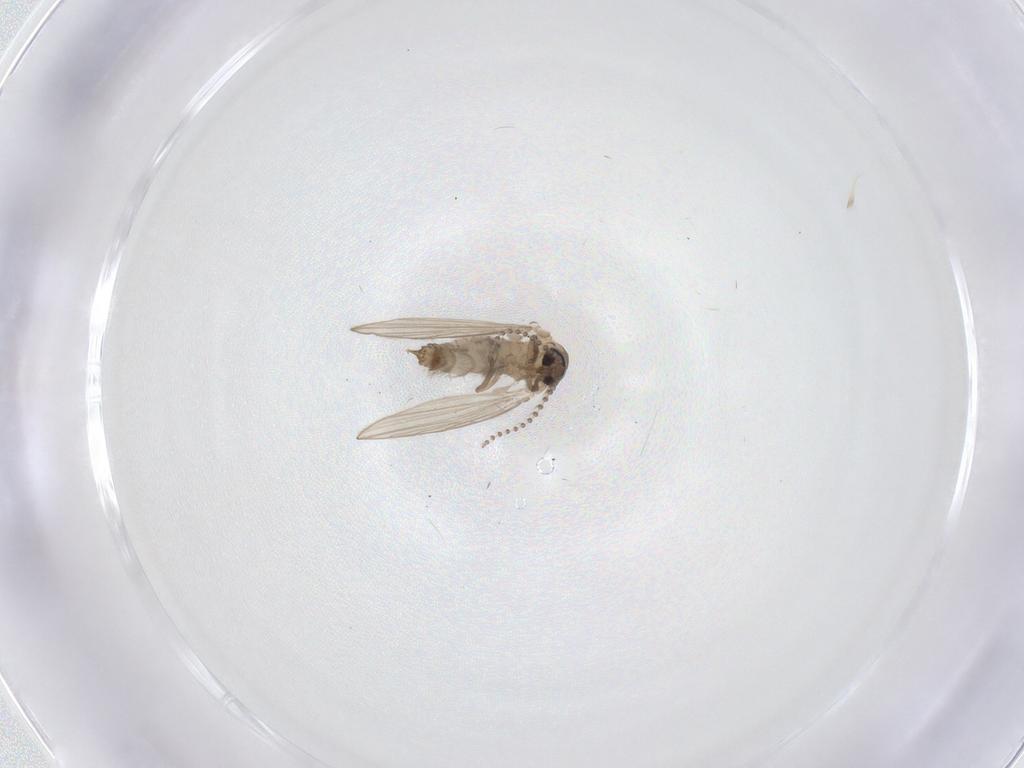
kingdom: Animalia
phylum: Arthropoda
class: Insecta
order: Diptera
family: Psychodidae
